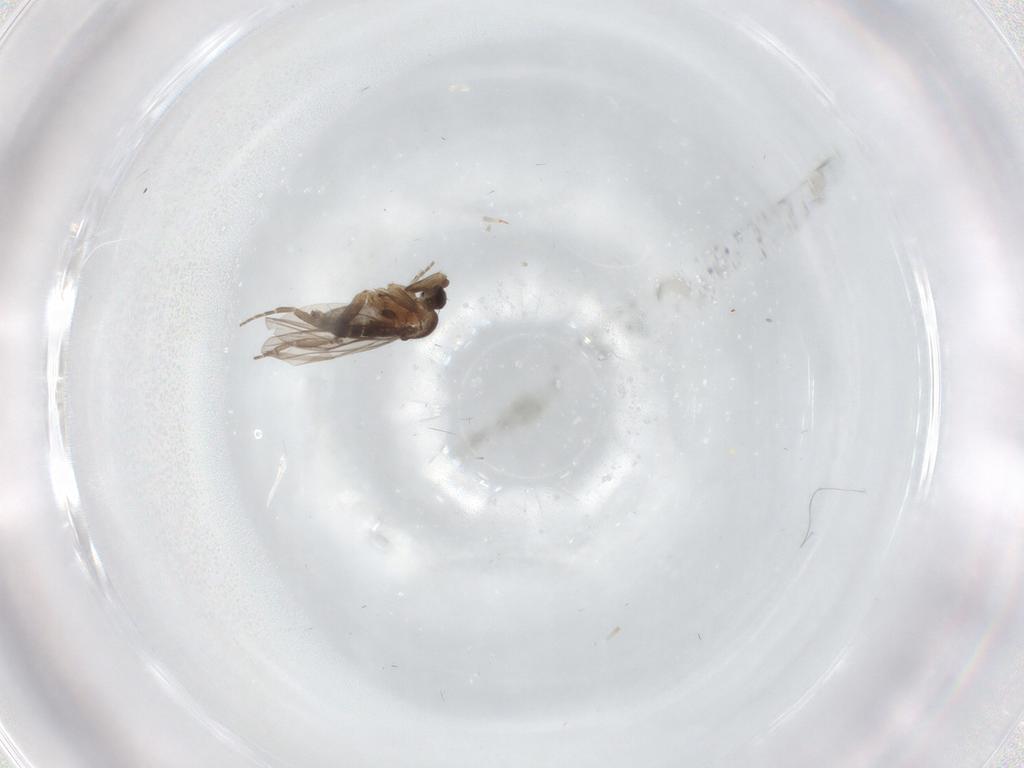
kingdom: Animalia
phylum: Arthropoda
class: Insecta
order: Diptera
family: Cecidomyiidae
